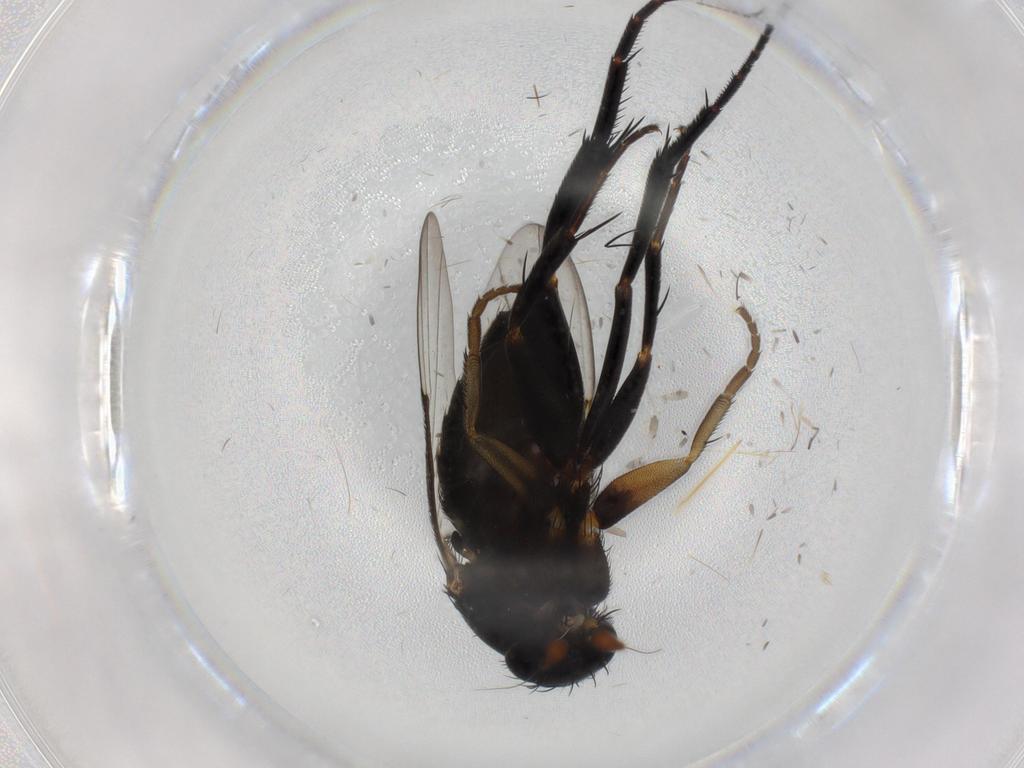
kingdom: Animalia
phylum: Arthropoda
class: Insecta
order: Diptera
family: Phoridae
